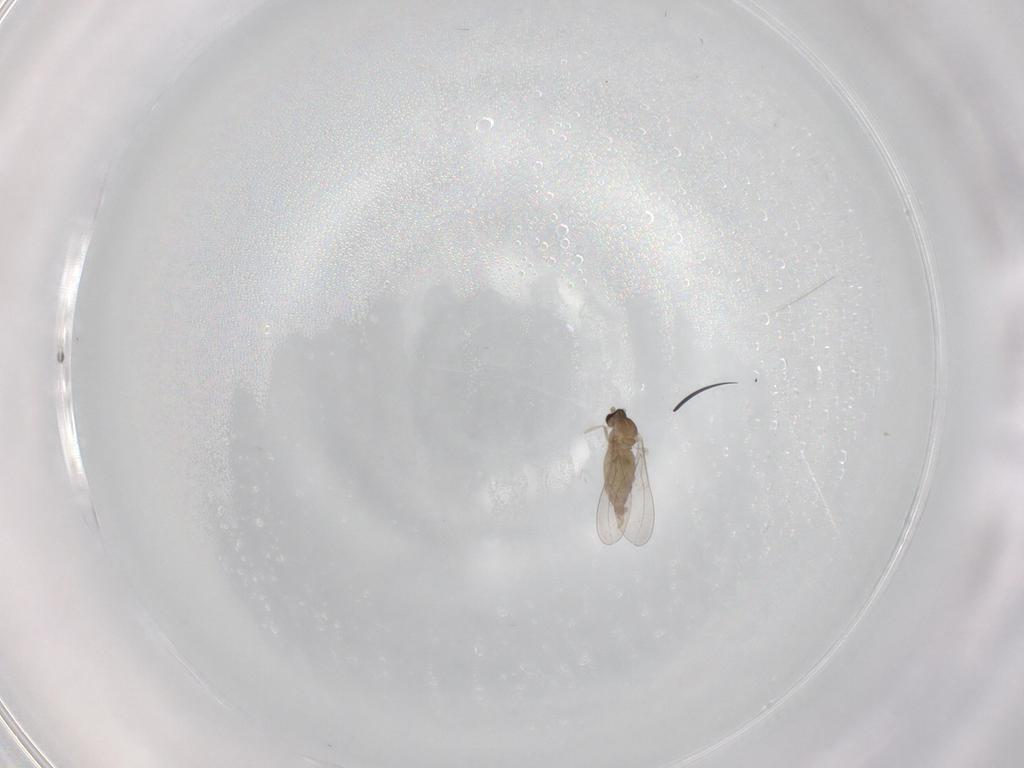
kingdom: Animalia
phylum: Arthropoda
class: Insecta
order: Diptera
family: Cecidomyiidae
